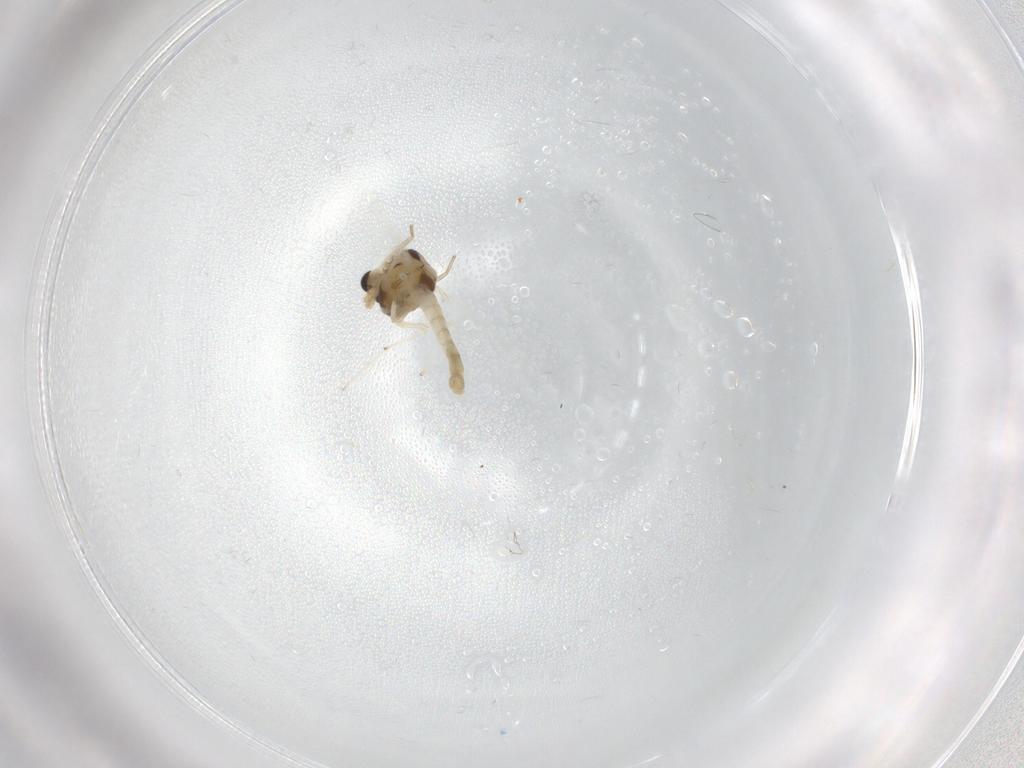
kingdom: Animalia
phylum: Arthropoda
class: Insecta
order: Diptera
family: Chironomidae
